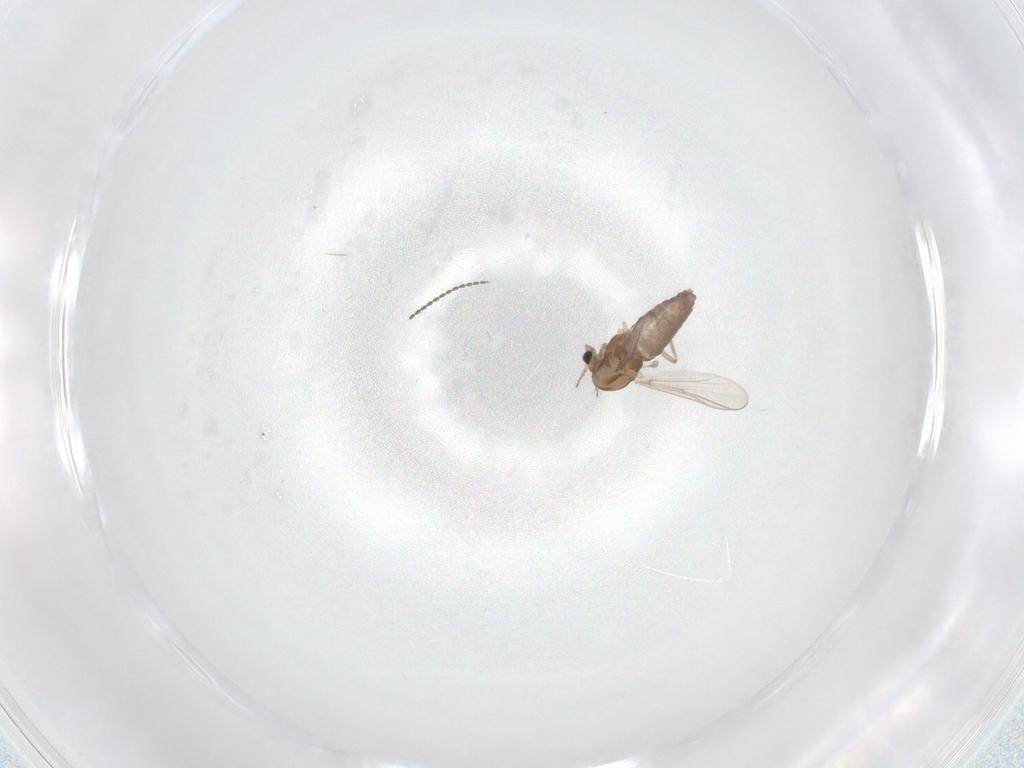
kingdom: Animalia
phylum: Arthropoda
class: Insecta
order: Diptera
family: Chironomidae
